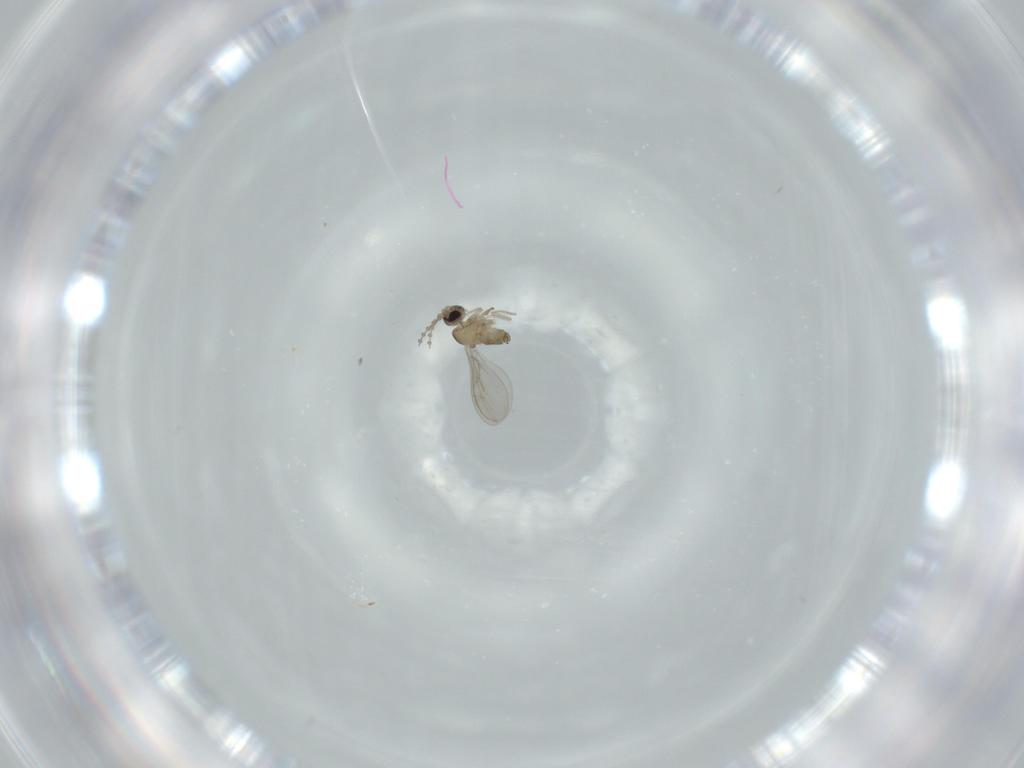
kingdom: Animalia
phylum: Arthropoda
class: Insecta
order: Diptera
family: Cecidomyiidae
